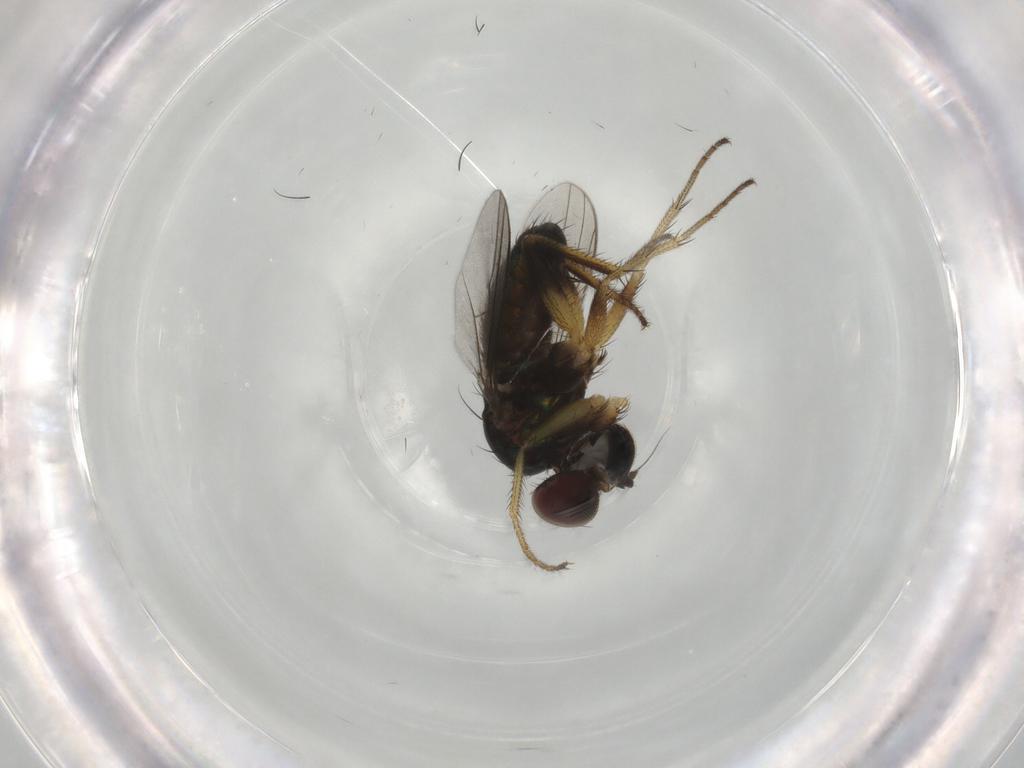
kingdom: Animalia
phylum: Arthropoda
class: Insecta
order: Diptera
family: Dolichopodidae
